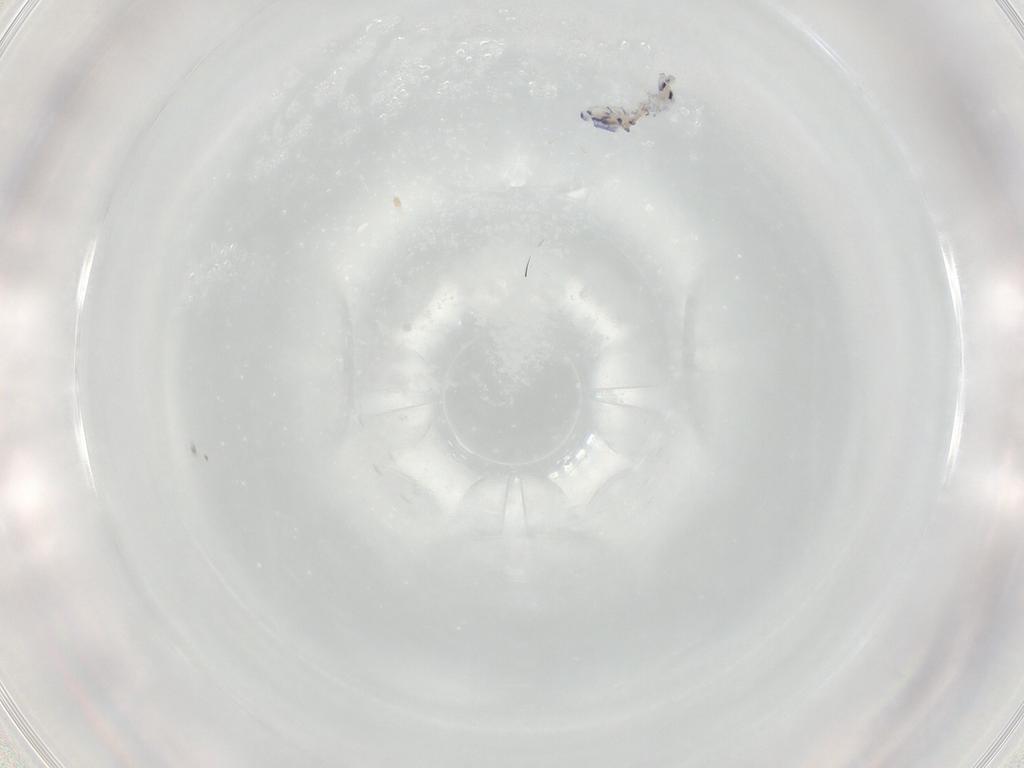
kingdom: Animalia
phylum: Arthropoda
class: Collembola
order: Entomobryomorpha
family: Entomobryidae
